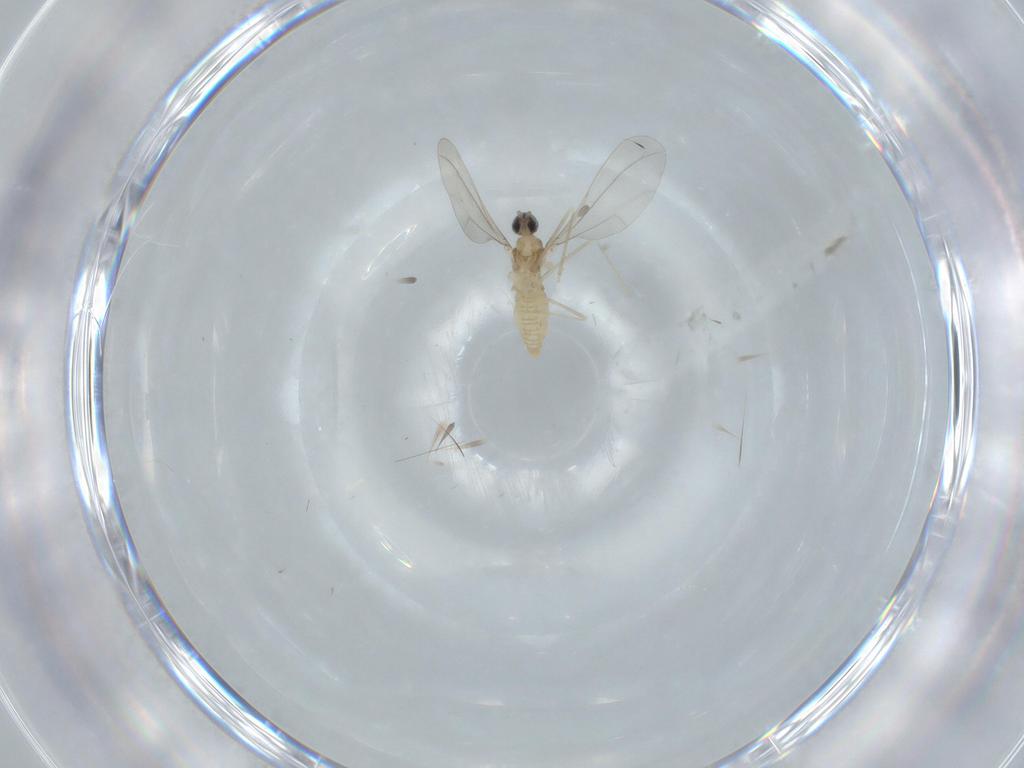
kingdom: Animalia
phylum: Arthropoda
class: Insecta
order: Diptera
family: Cecidomyiidae
